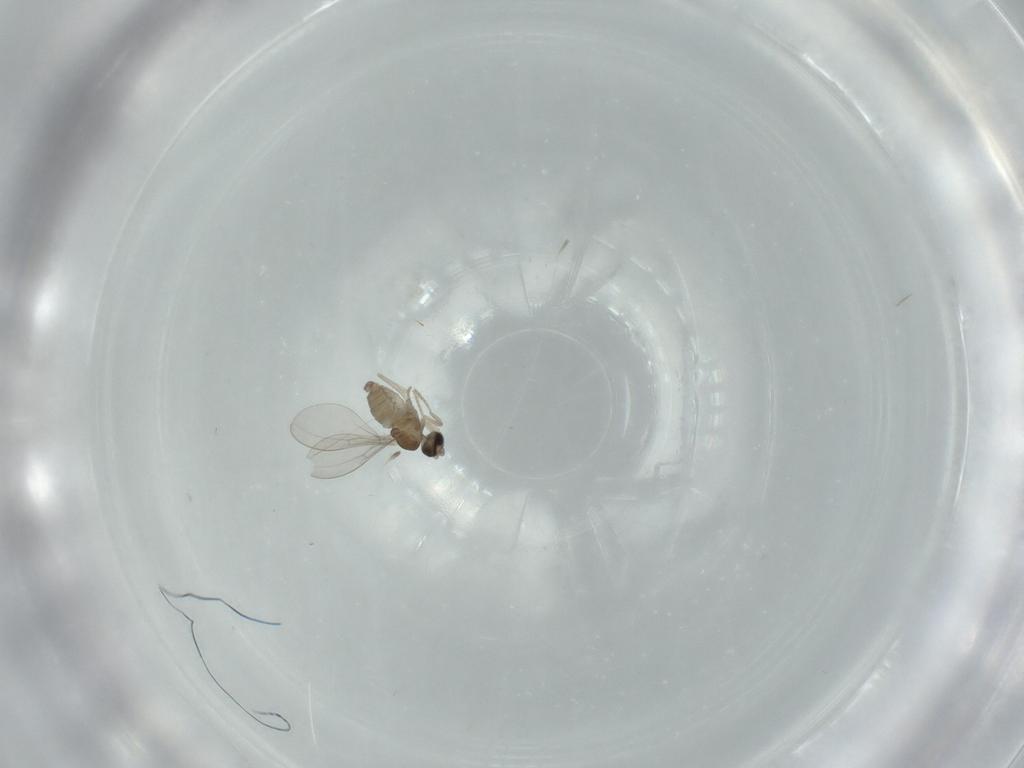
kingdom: Animalia
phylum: Arthropoda
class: Insecta
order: Diptera
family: Cecidomyiidae
